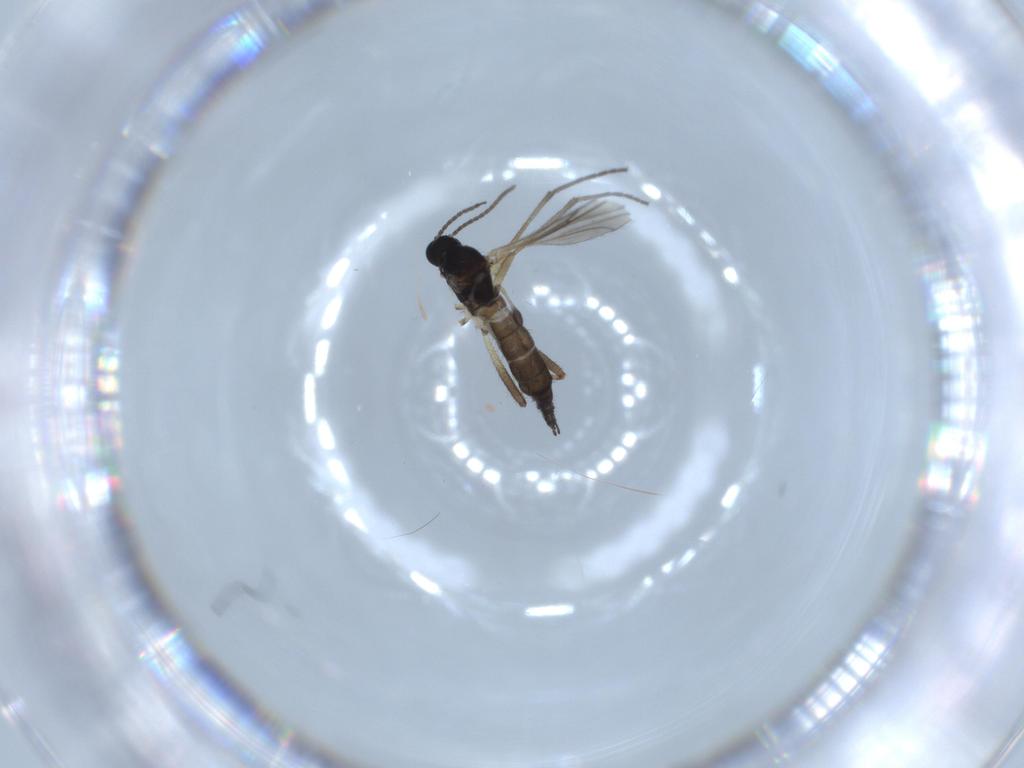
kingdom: Animalia
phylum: Arthropoda
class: Insecta
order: Diptera
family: Sciaridae
